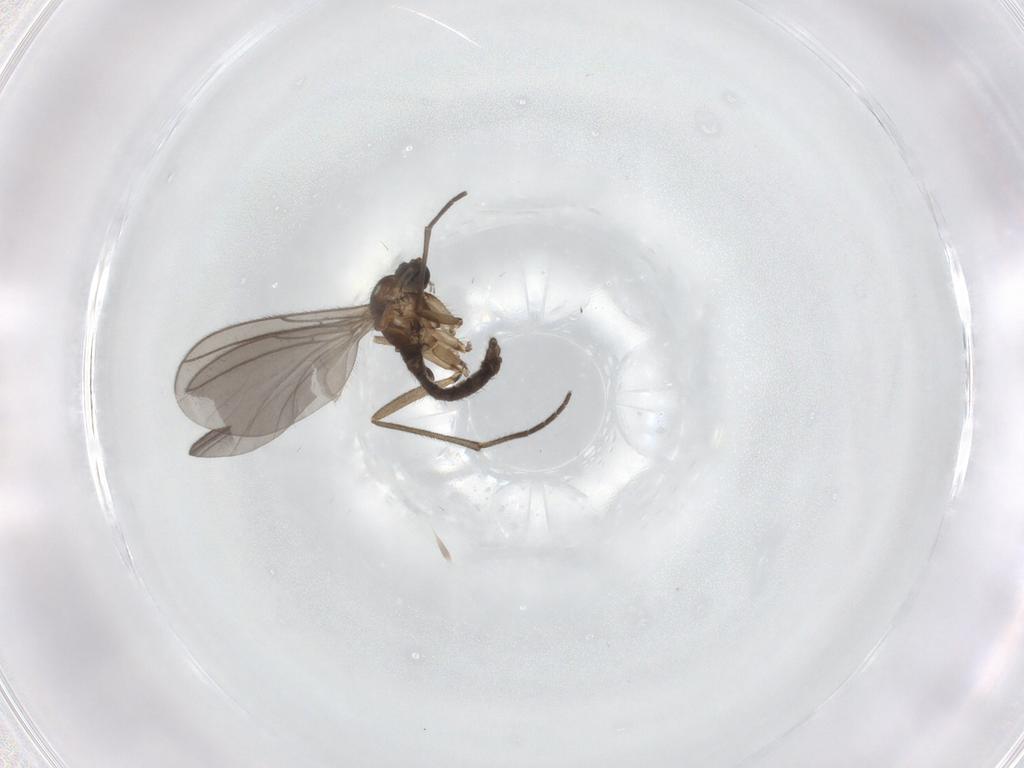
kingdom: Animalia
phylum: Arthropoda
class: Insecta
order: Diptera
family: Sciaridae
